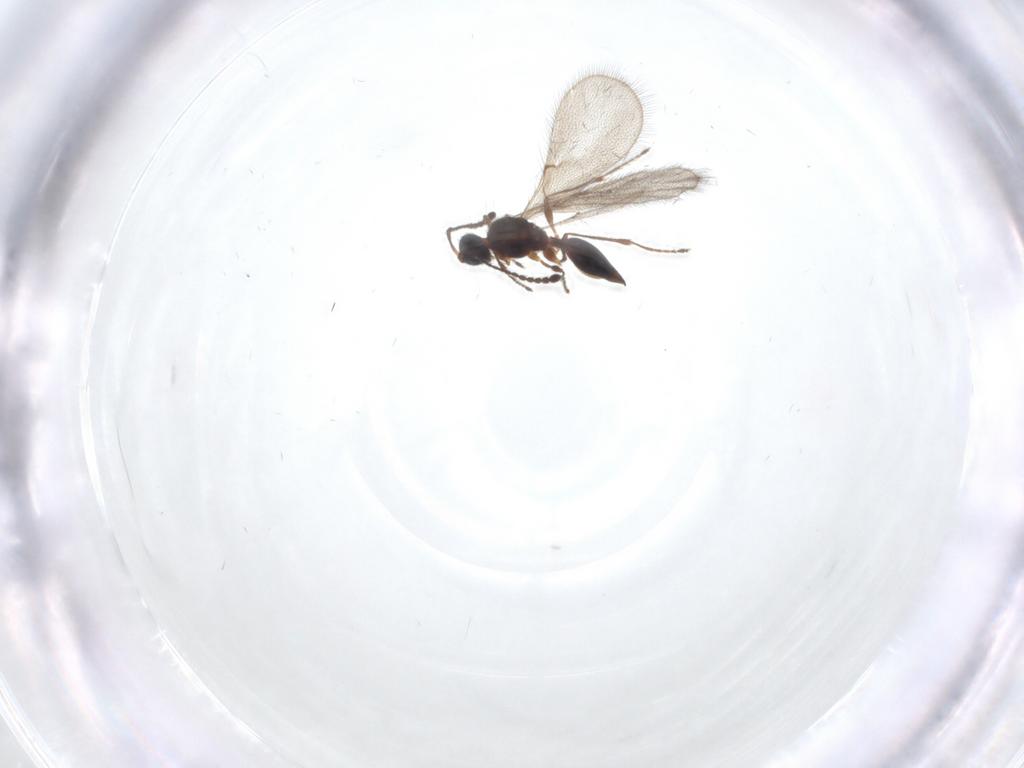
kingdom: Animalia
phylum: Arthropoda
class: Insecta
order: Hymenoptera
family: Diapriidae
